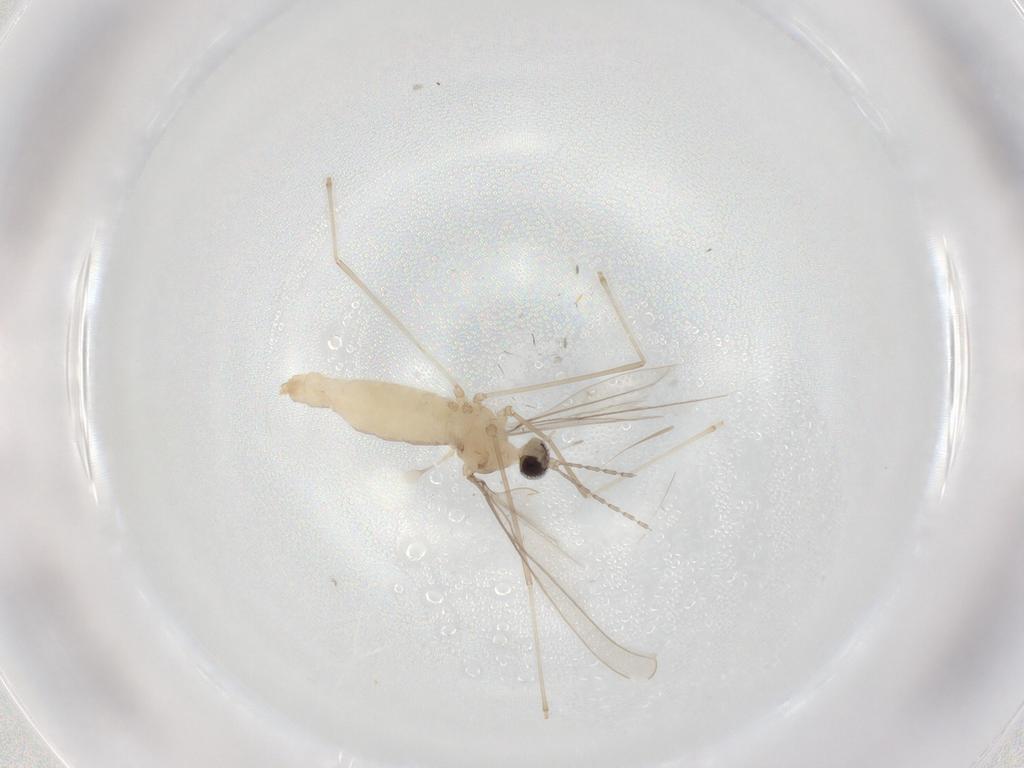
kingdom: Animalia
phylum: Arthropoda
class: Insecta
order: Diptera
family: Cecidomyiidae
